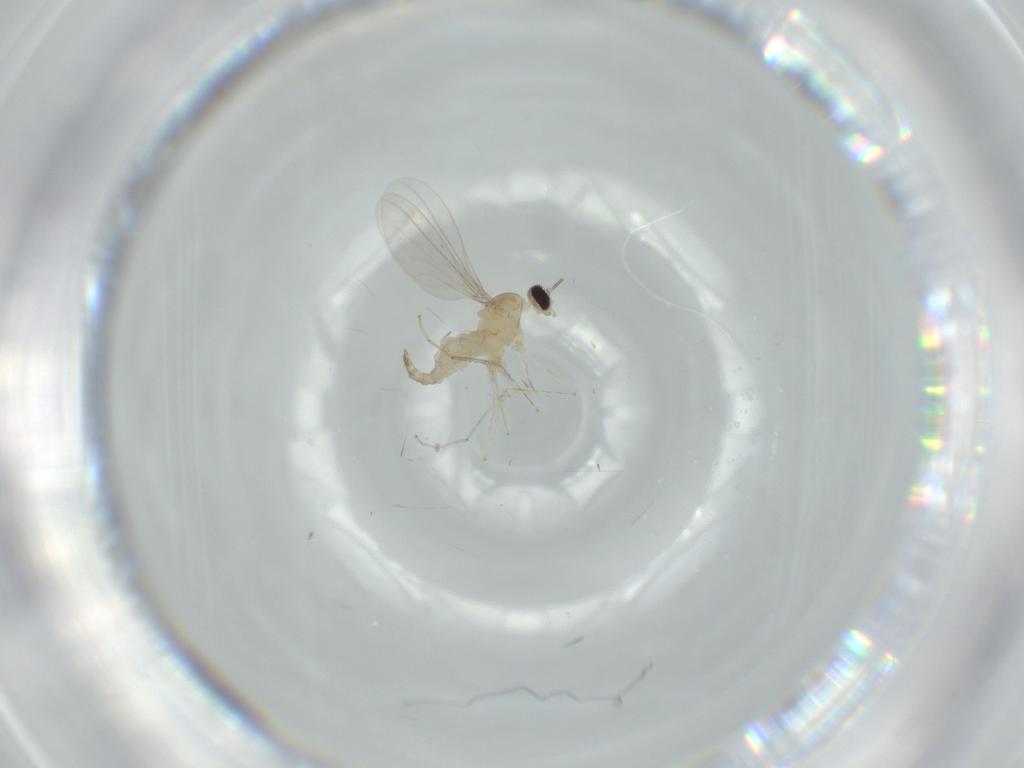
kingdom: Animalia
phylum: Arthropoda
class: Insecta
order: Diptera
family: Cecidomyiidae
